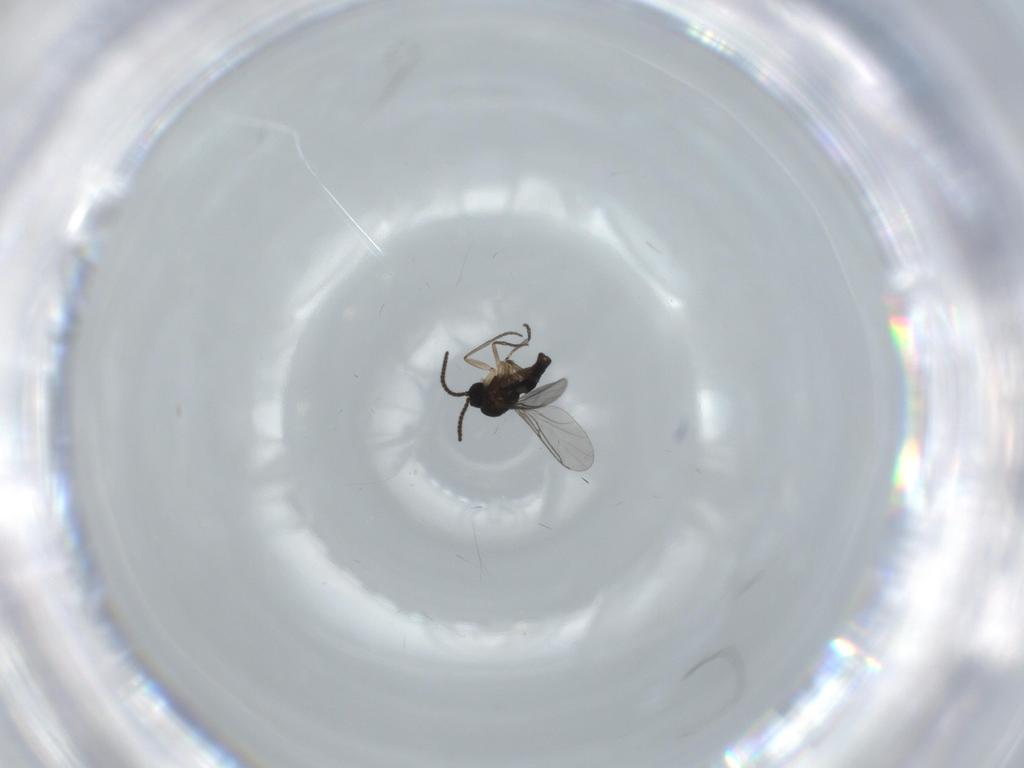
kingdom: Animalia
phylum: Arthropoda
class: Insecta
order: Diptera
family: Sciaridae
